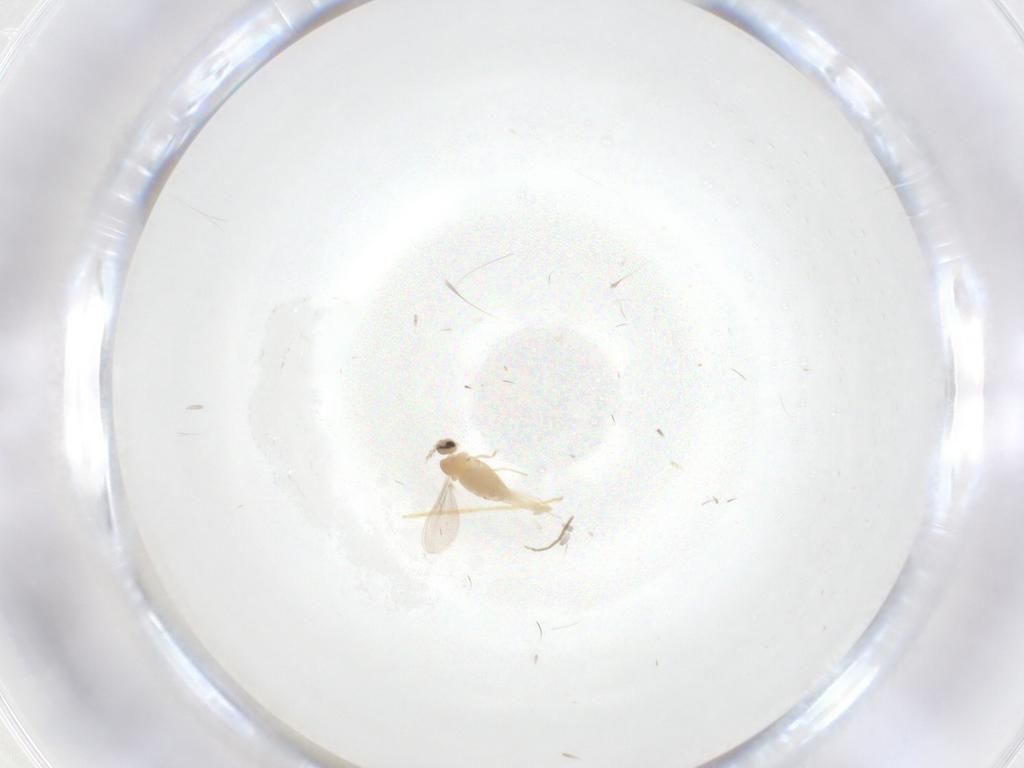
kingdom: Animalia
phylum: Arthropoda
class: Insecta
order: Diptera
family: Cecidomyiidae
